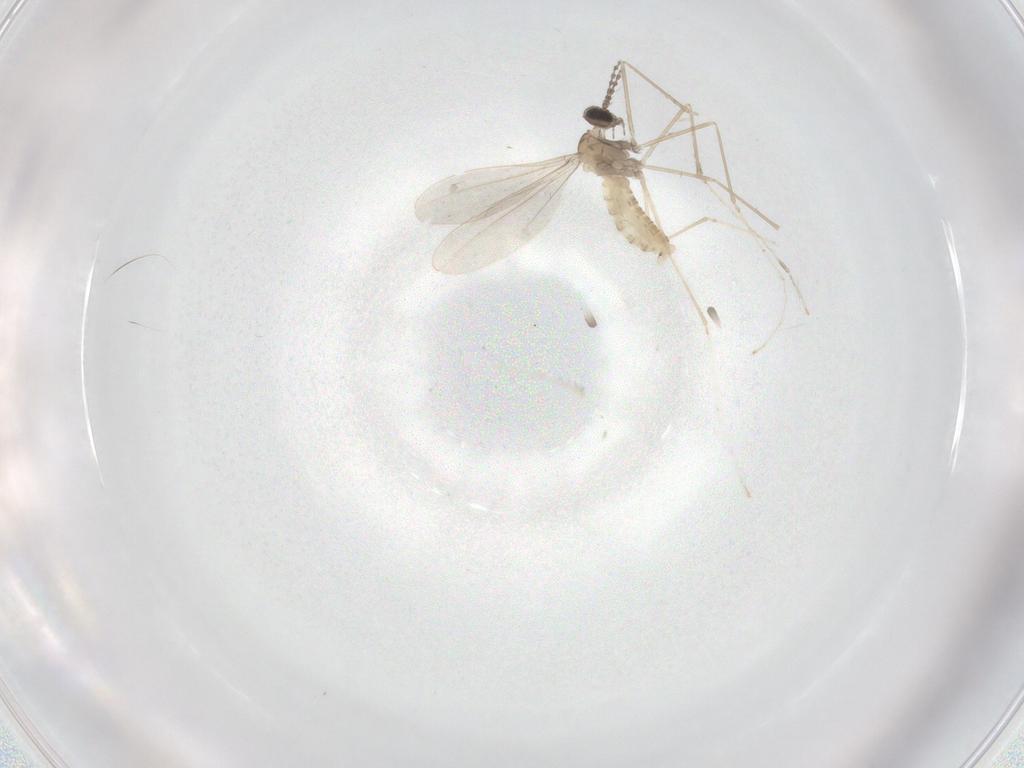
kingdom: Animalia
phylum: Arthropoda
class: Insecta
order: Diptera
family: Cecidomyiidae
